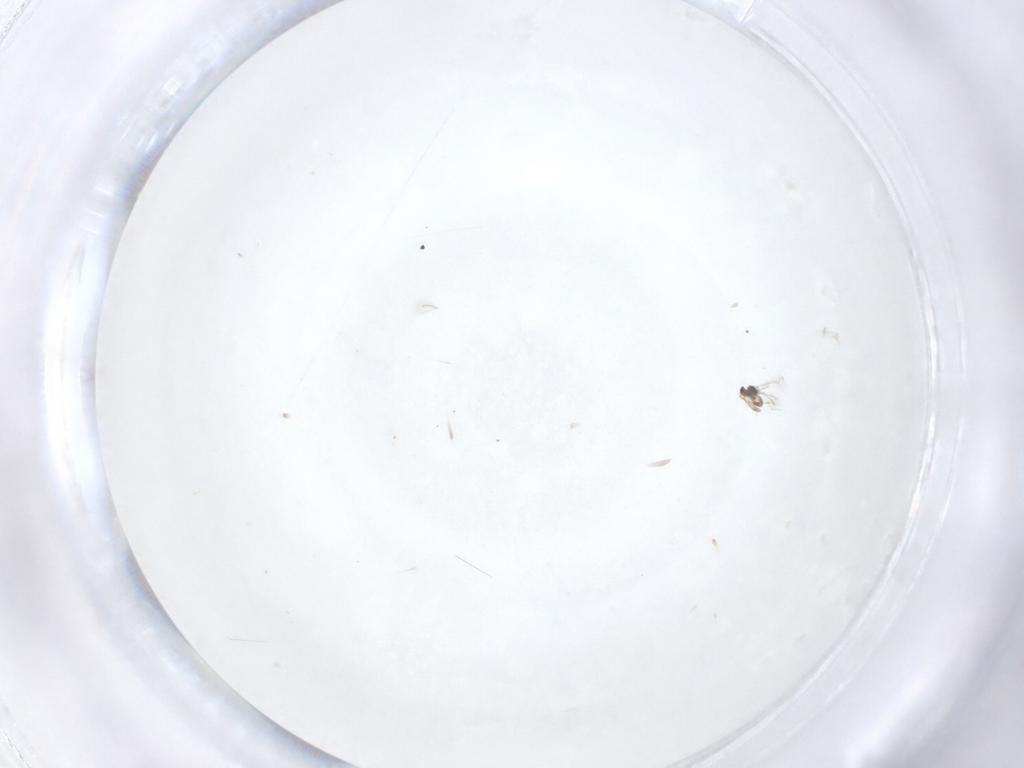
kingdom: Animalia
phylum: Arthropoda
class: Insecta
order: Hymenoptera
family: Mymaridae
